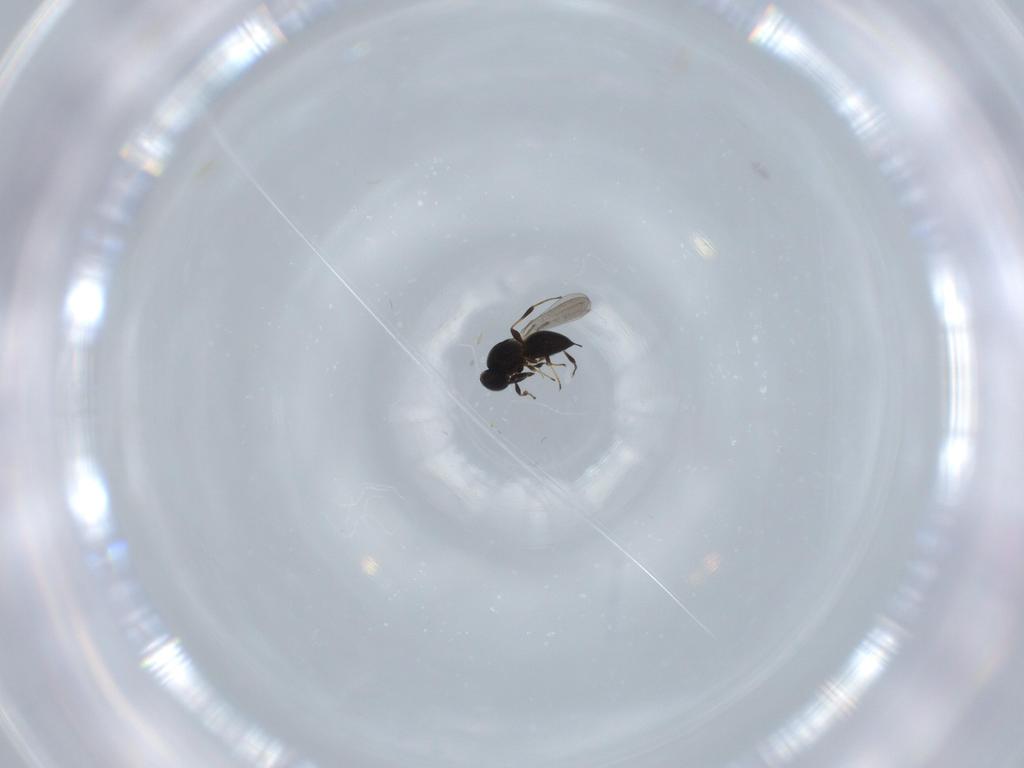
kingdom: Animalia
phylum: Arthropoda
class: Insecta
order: Hymenoptera
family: Platygastridae
